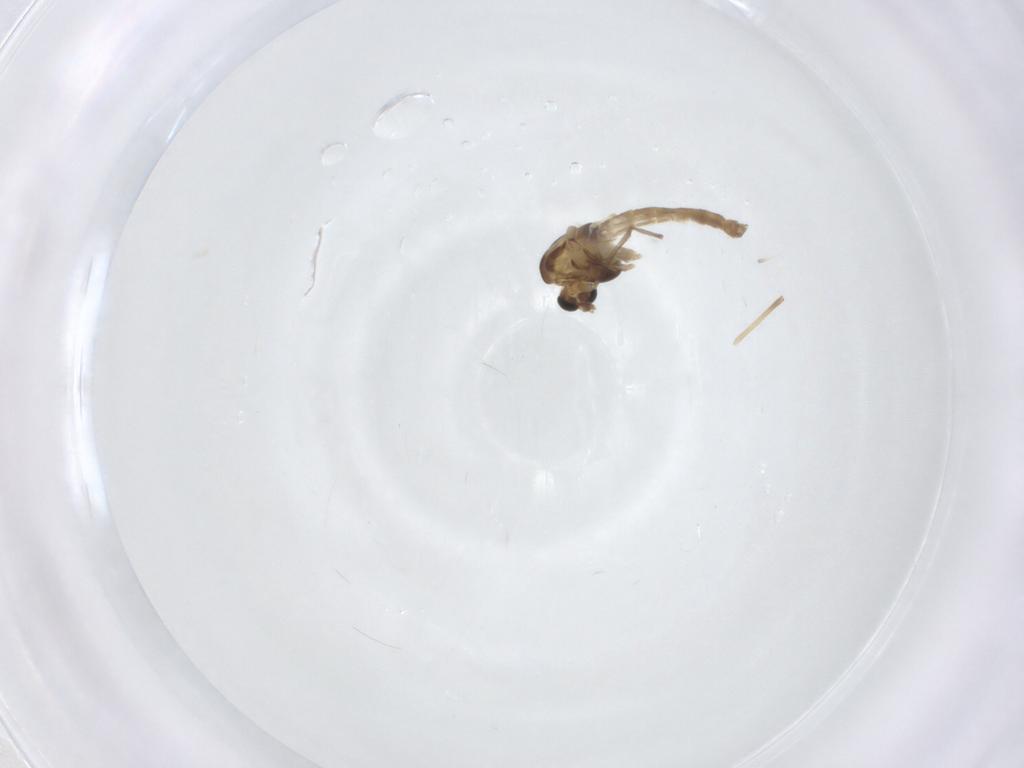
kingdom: Animalia
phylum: Arthropoda
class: Insecta
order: Diptera
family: Chironomidae
